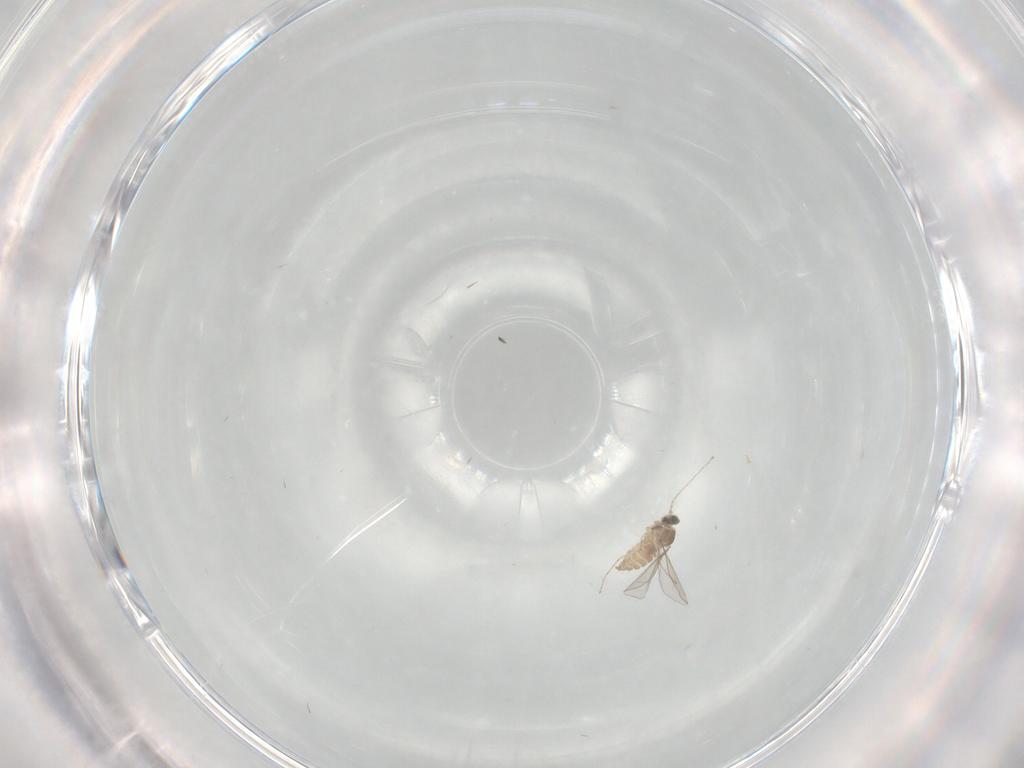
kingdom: Animalia
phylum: Arthropoda
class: Insecta
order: Diptera
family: Cecidomyiidae
